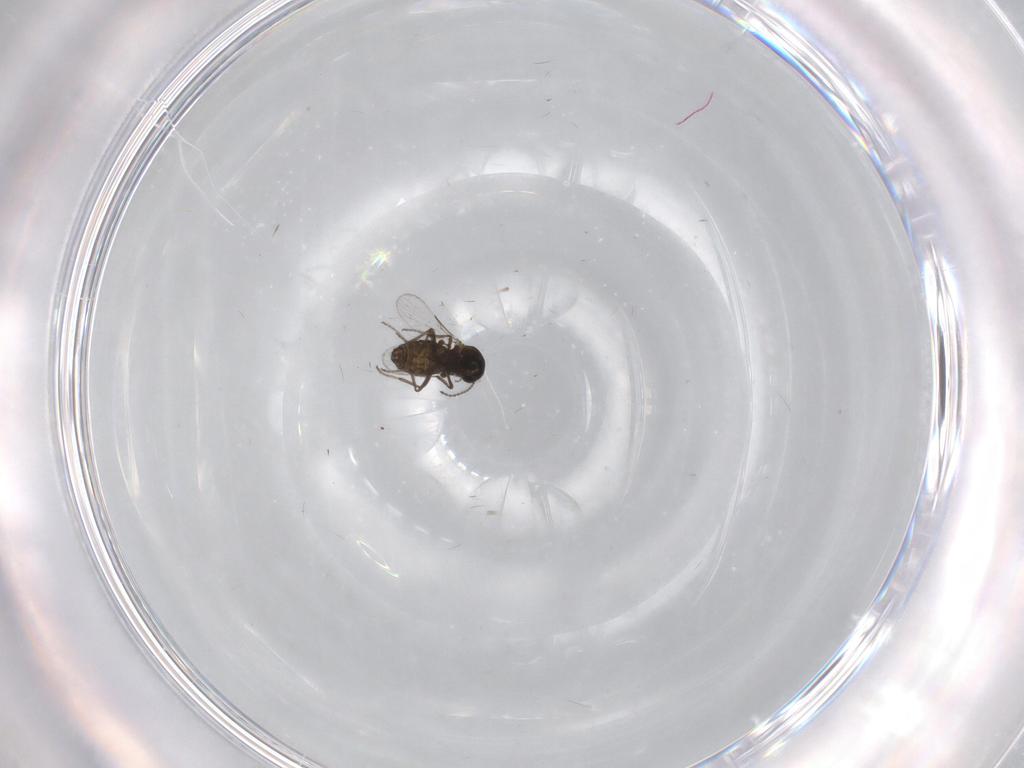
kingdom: Animalia
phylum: Arthropoda
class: Insecta
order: Diptera
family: Ceratopogonidae
